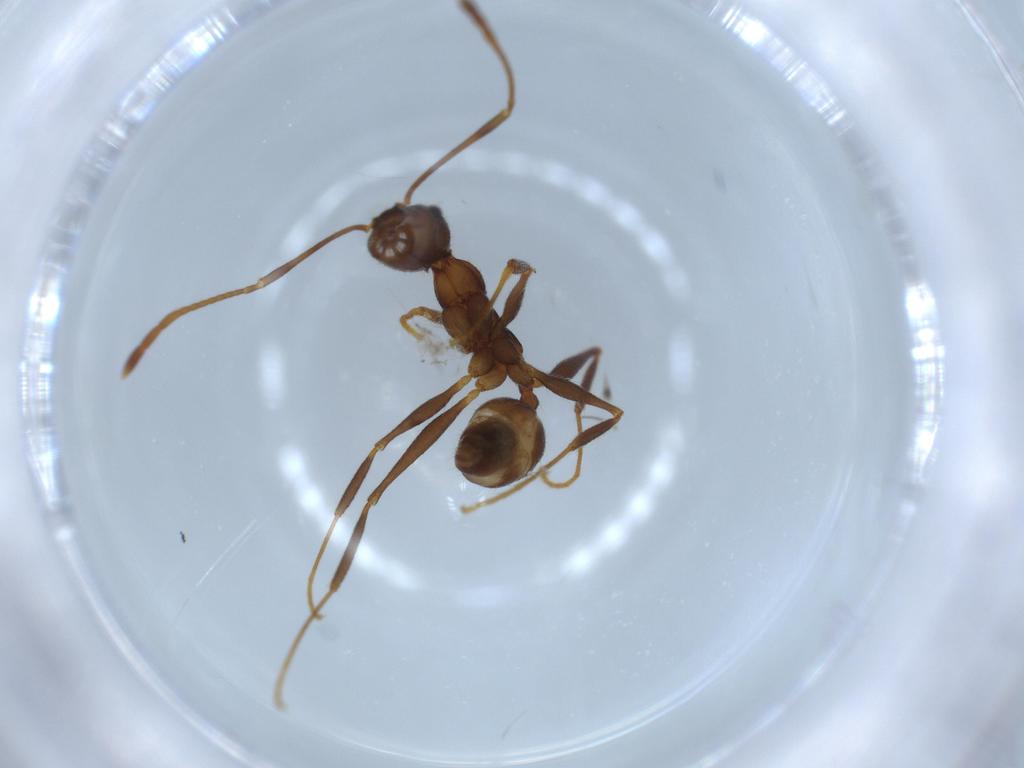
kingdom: Animalia
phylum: Arthropoda
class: Insecta
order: Hymenoptera
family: Formicidae
